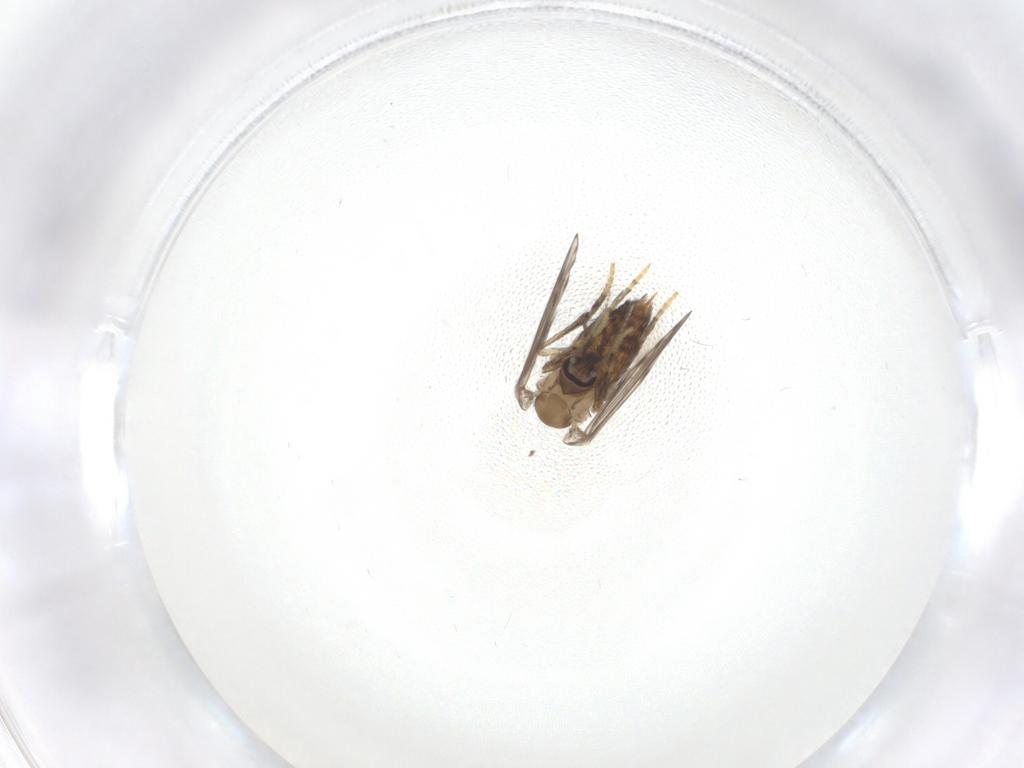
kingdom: Animalia
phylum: Arthropoda
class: Insecta
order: Diptera
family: Psychodidae
